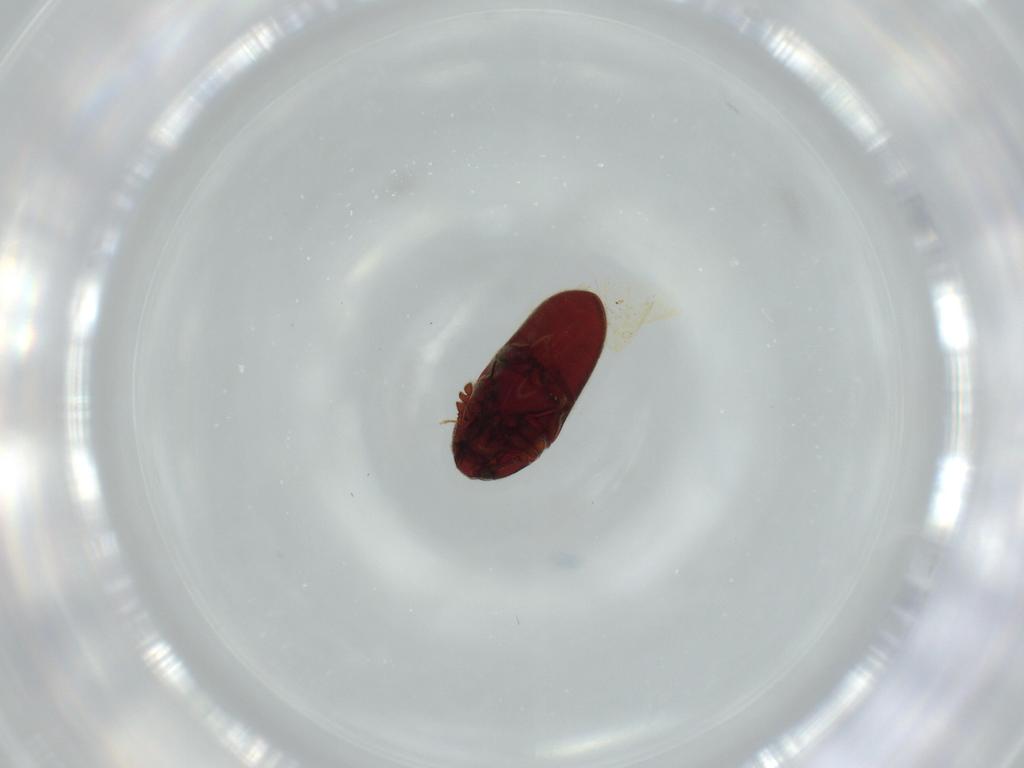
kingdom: Animalia
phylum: Arthropoda
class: Insecta
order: Coleoptera
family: Throscidae
